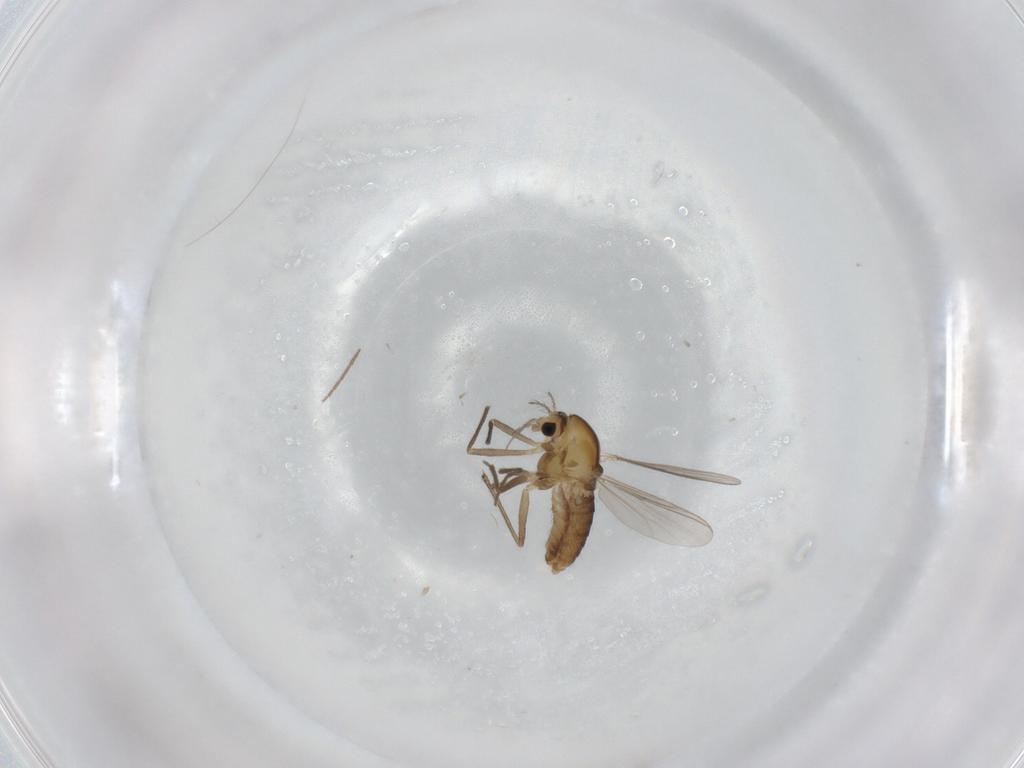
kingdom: Animalia
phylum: Arthropoda
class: Insecta
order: Diptera
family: Chironomidae
